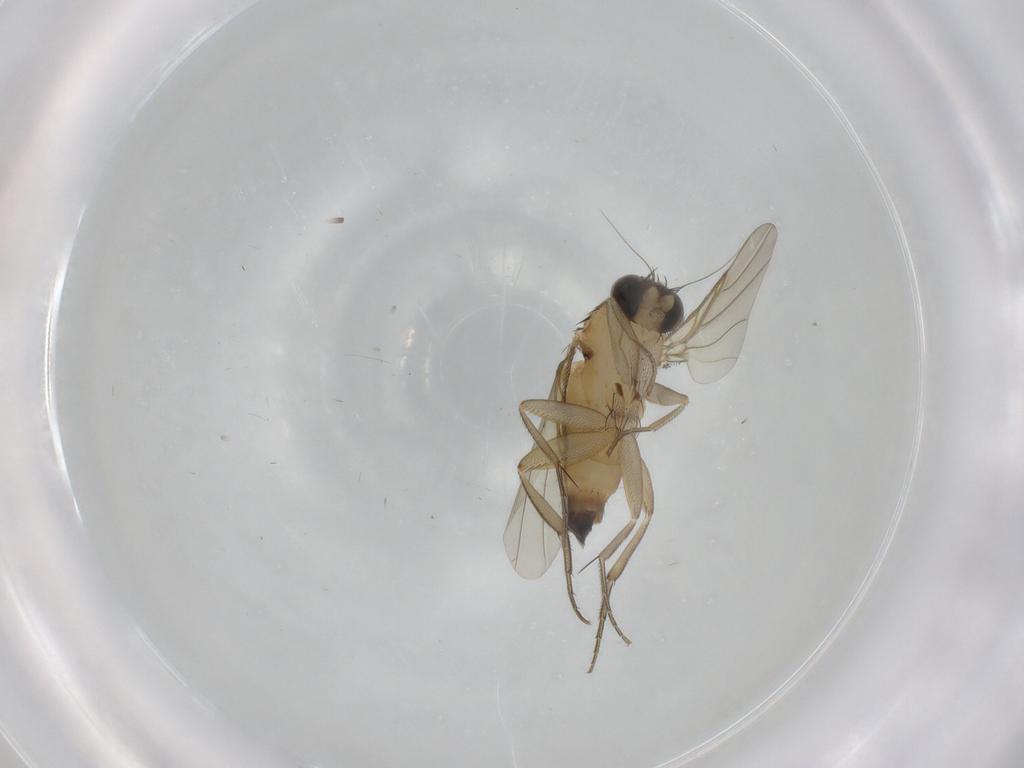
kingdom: Animalia
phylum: Arthropoda
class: Insecta
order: Diptera
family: Phoridae
